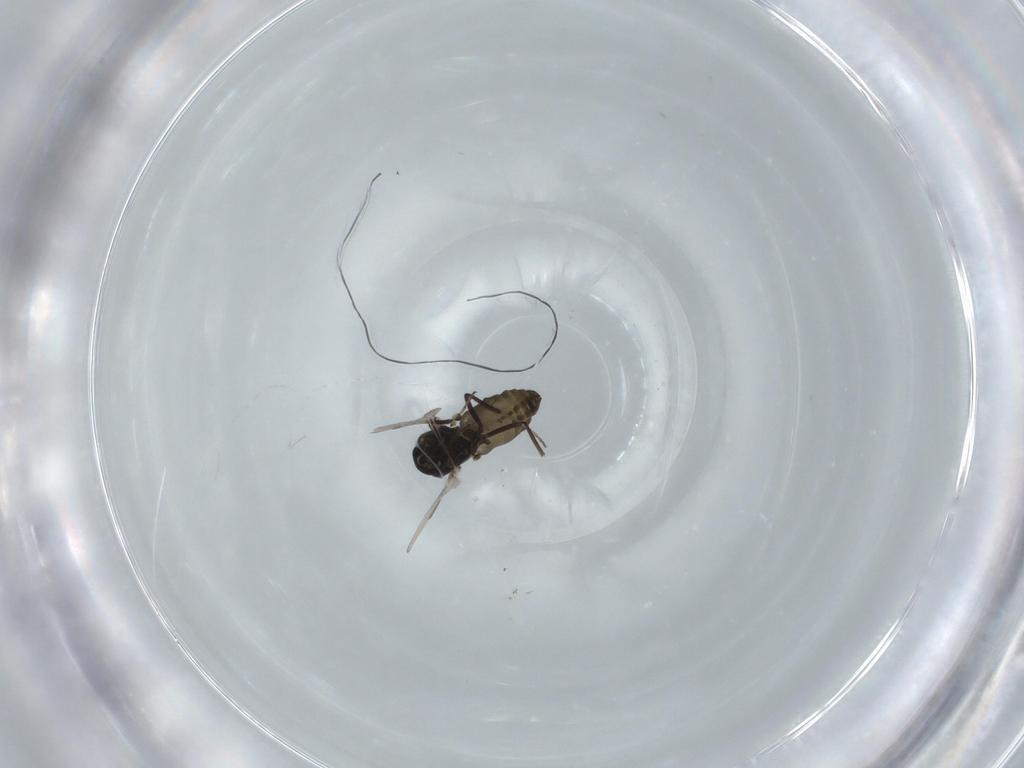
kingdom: Animalia
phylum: Arthropoda
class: Insecta
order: Diptera
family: Ceratopogonidae
